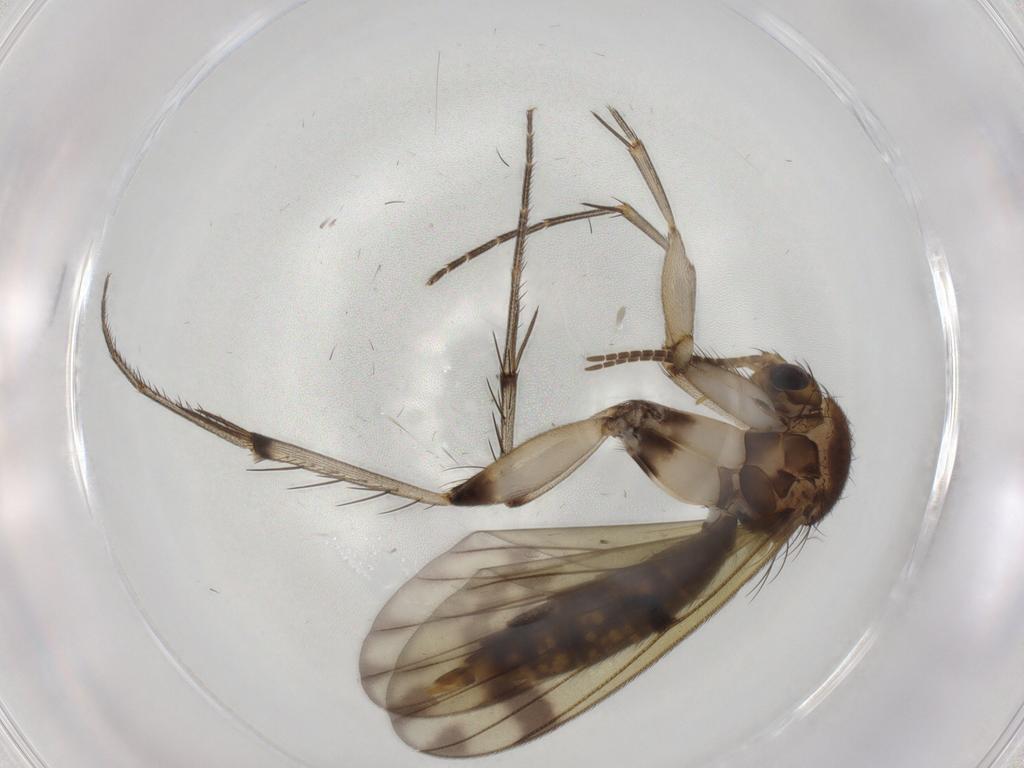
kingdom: Animalia
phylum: Arthropoda
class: Insecta
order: Diptera
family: Mycetophilidae
